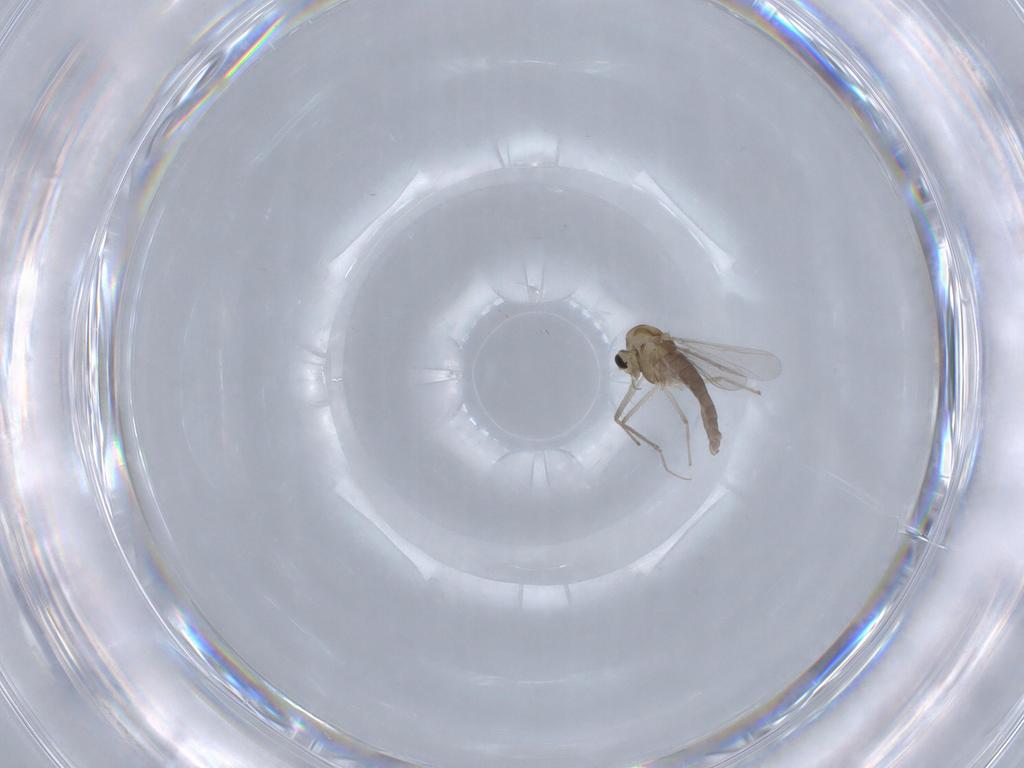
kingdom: Animalia
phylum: Arthropoda
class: Insecta
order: Diptera
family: Chironomidae
